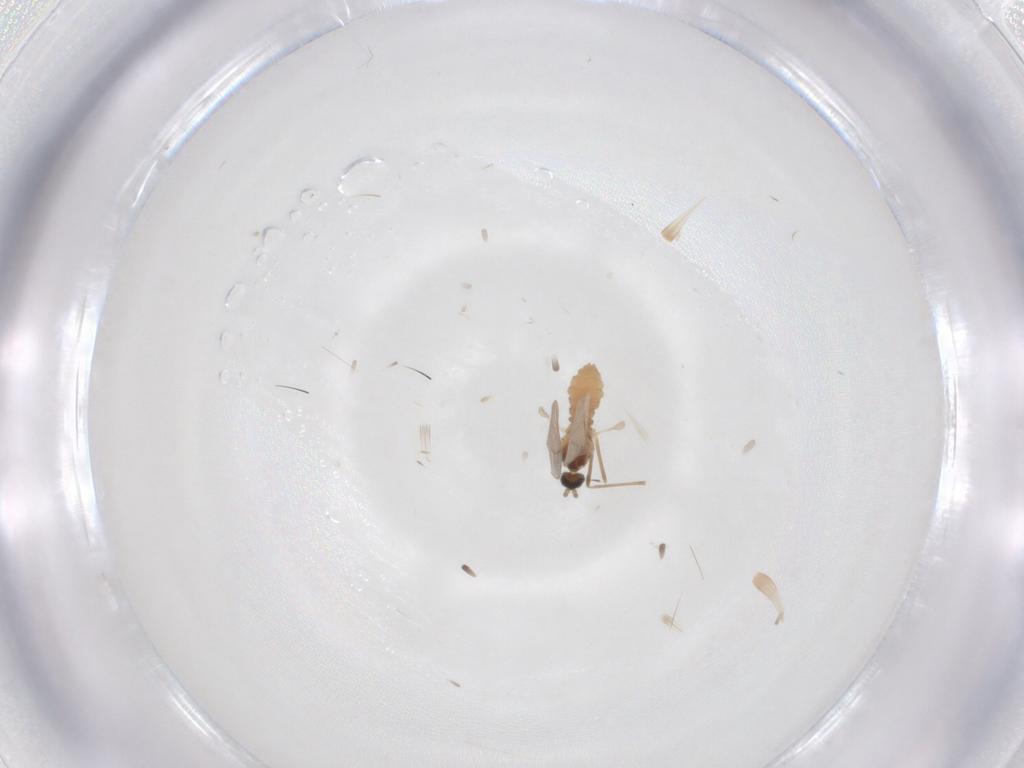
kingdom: Animalia
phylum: Arthropoda
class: Insecta
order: Diptera
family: Cecidomyiidae
